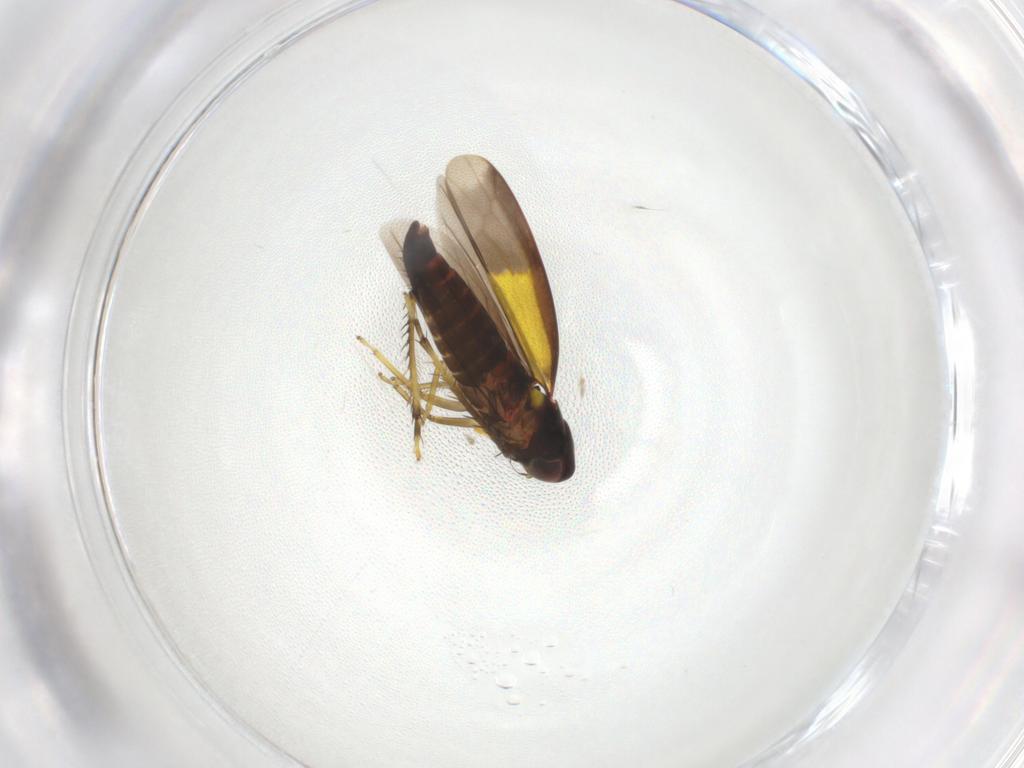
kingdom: Animalia
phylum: Arthropoda
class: Insecta
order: Hemiptera
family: Cicadellidae
